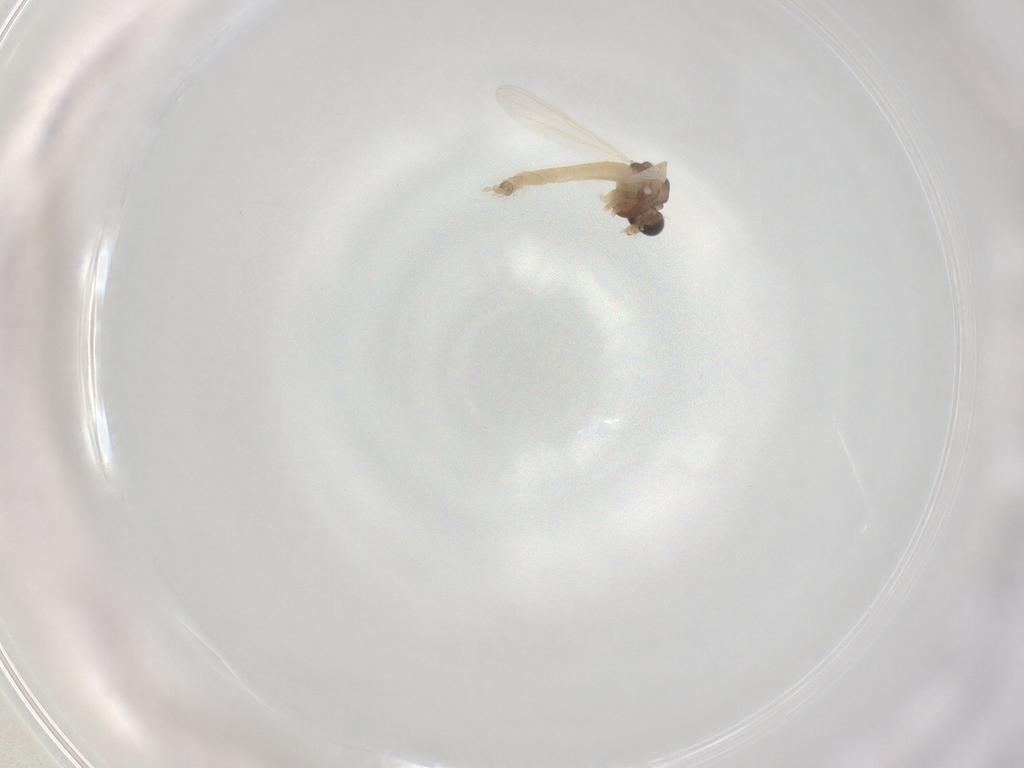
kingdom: Animalia
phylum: Arthropoda
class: Insecta
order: Diptera
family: Chironomidae
